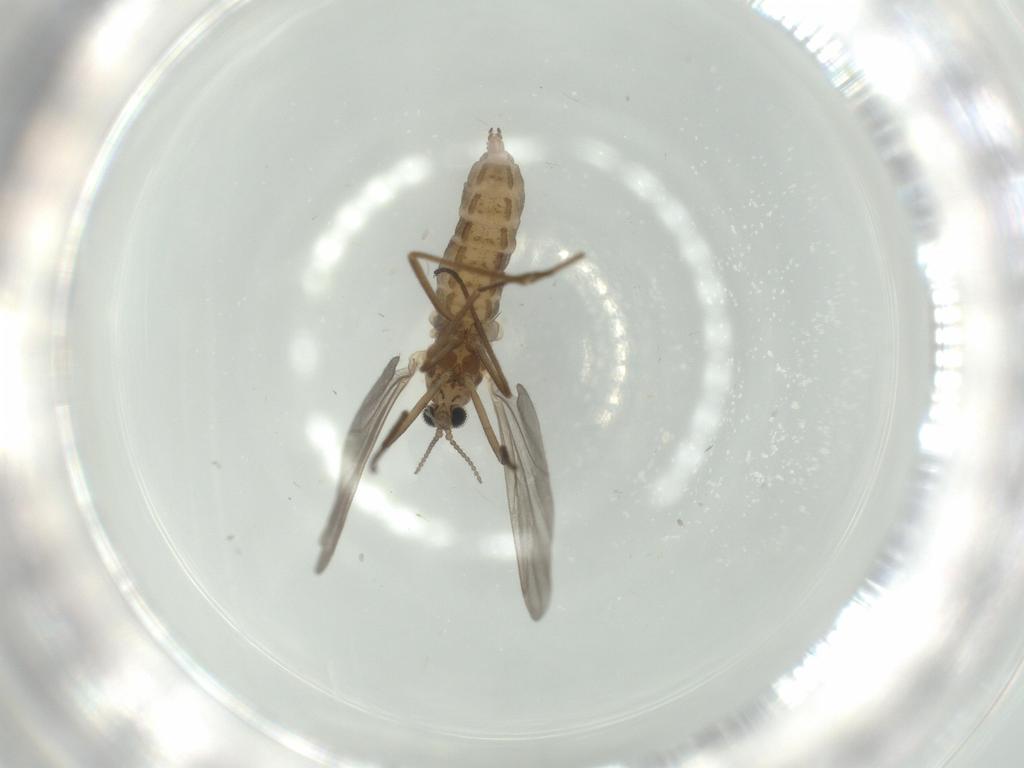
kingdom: Animalia
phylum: Arthropoda
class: Insecta
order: Diptera
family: Cecidomyiidae
